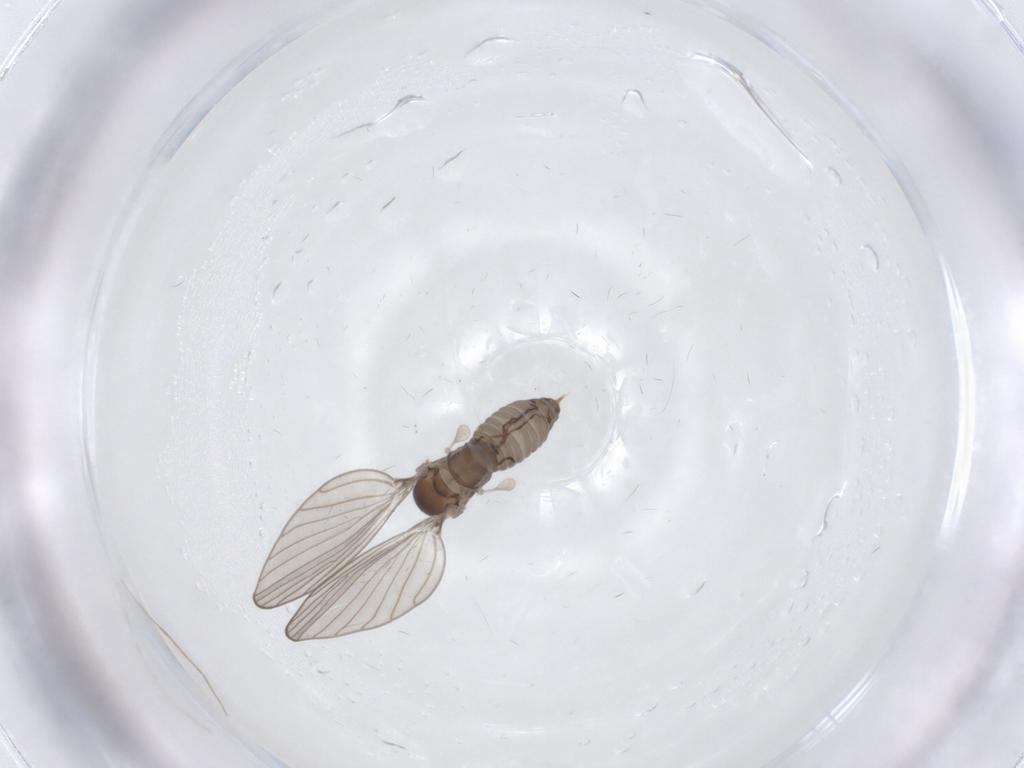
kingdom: Animalia
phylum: Arthropoda
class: Insecta
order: Diptera
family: Psychodidae
